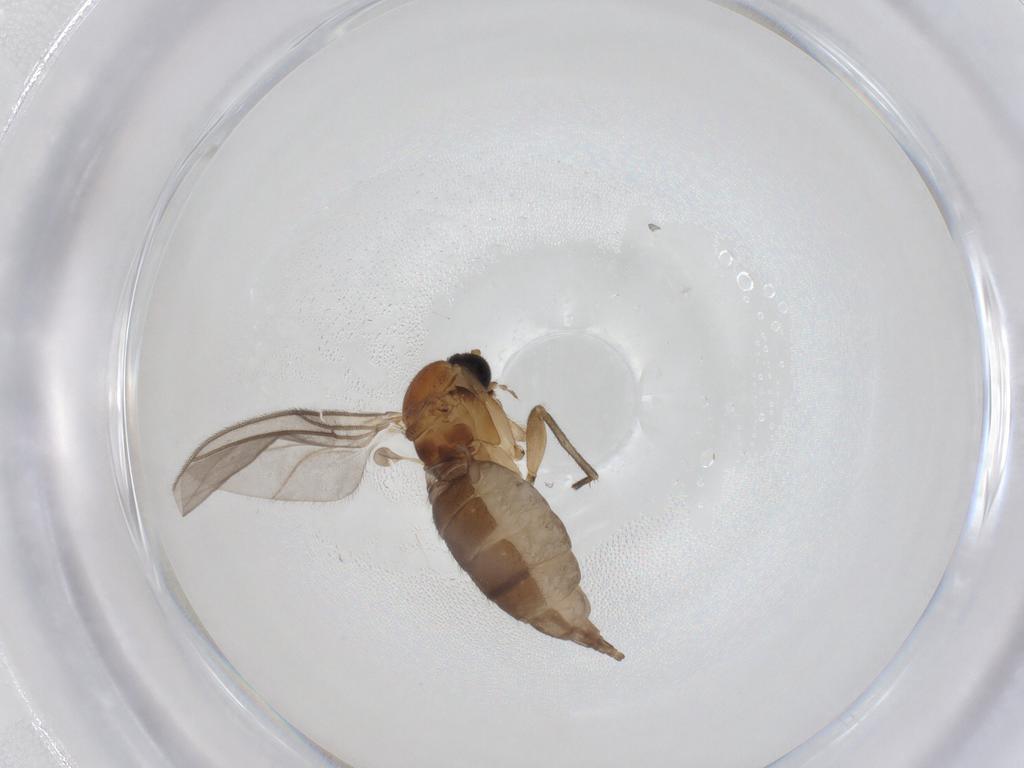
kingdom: Animalia
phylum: Arthropoda
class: Insecta
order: Diptera
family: Sciaridae
